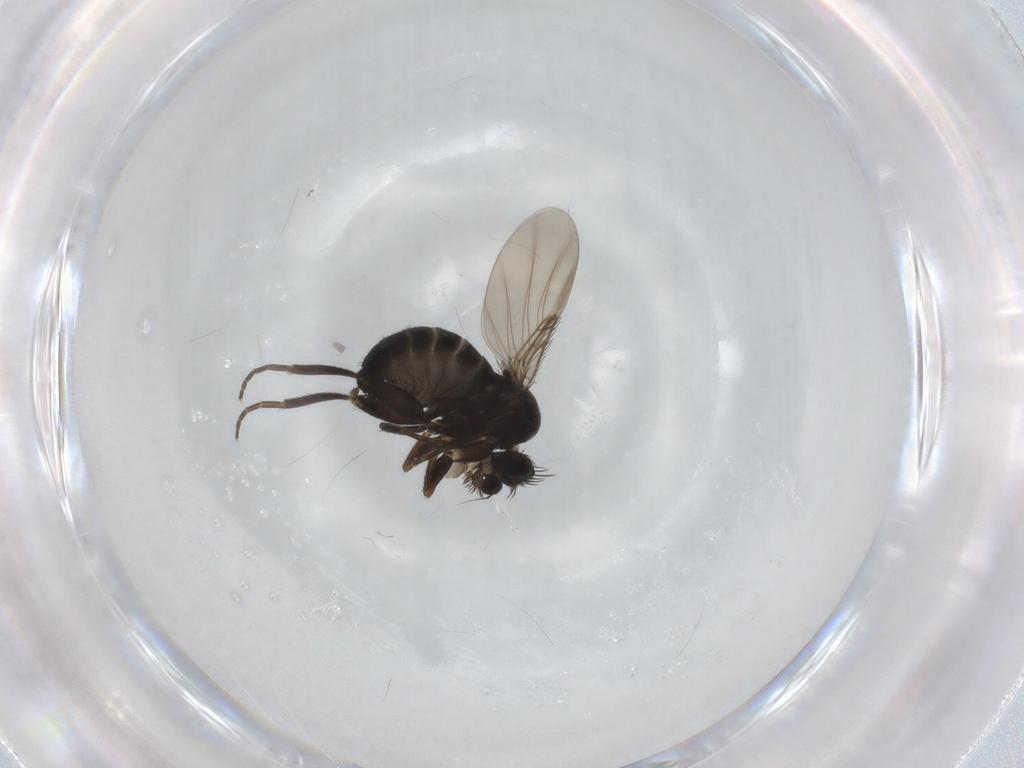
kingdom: Animalia
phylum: Arthropoda
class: Insecta
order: Diptera
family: Phoridae
